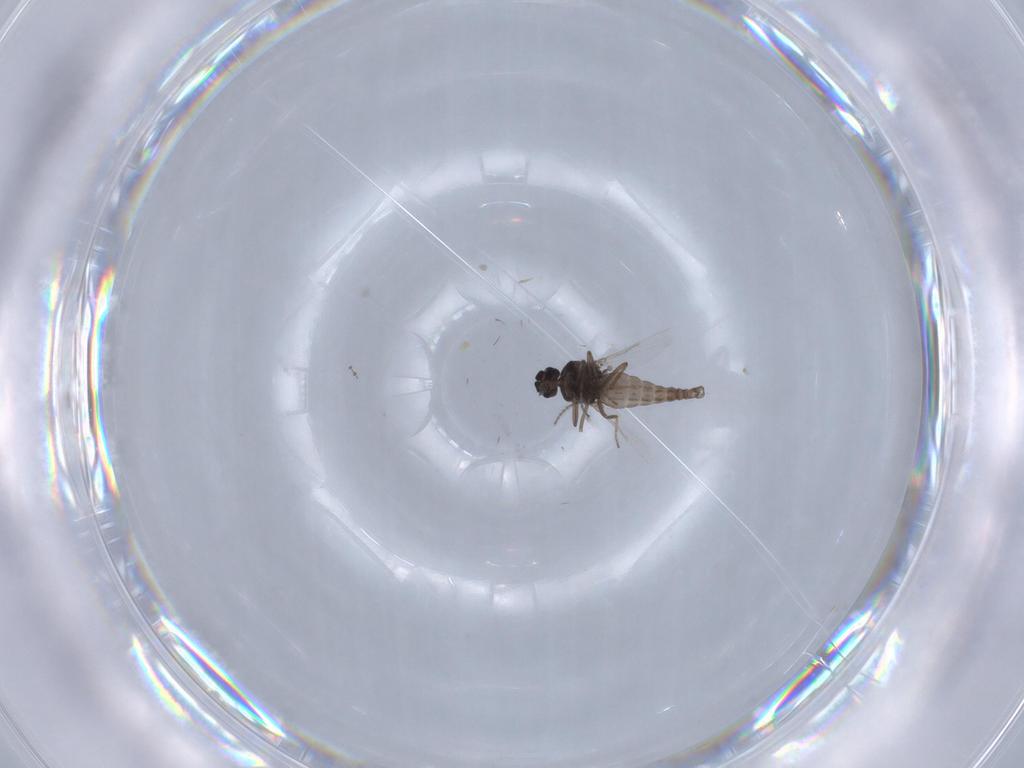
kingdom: Animalia
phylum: Arthropoda
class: Insecta
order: Diptera
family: Ceratopogonidae
